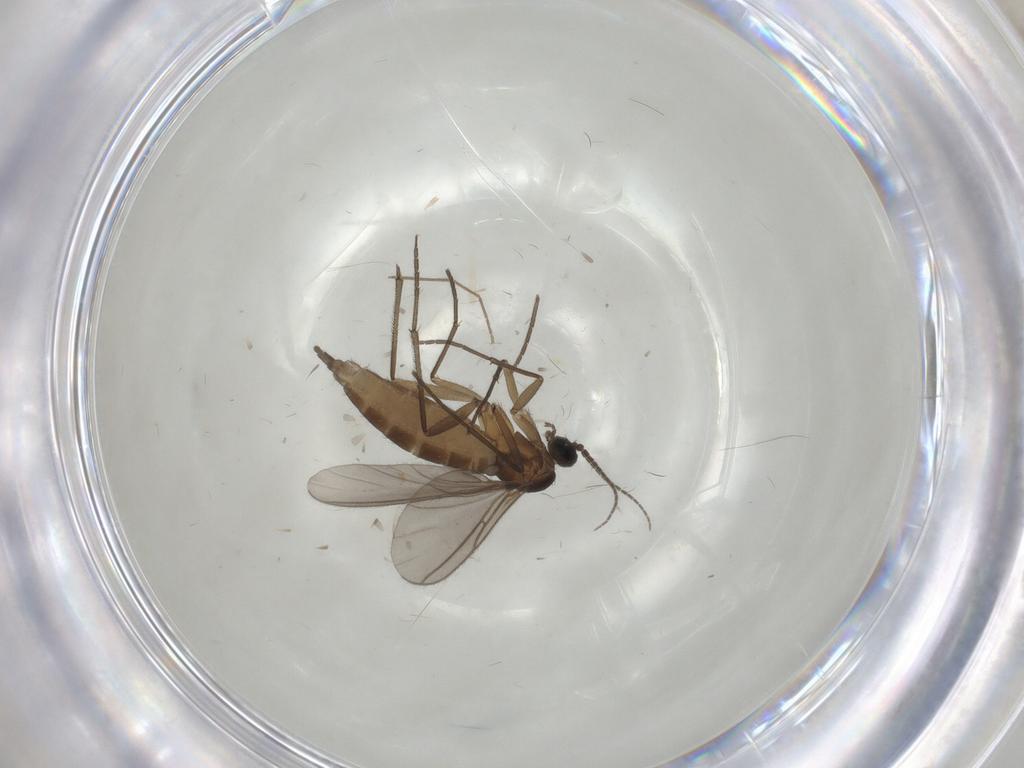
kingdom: Animalia
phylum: Arthropoda
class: Insecta
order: Diptera
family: Sciaridae
